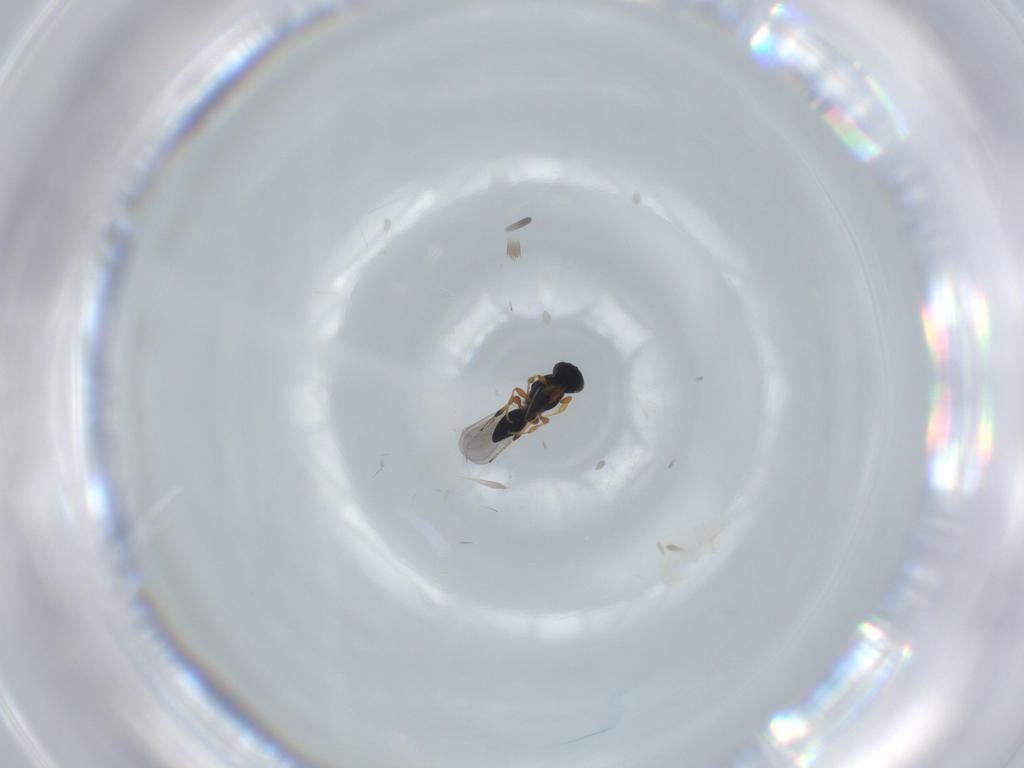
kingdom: Animalia
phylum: Arthropoda
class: Insecta
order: Hymenoptera
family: Platygastridae
